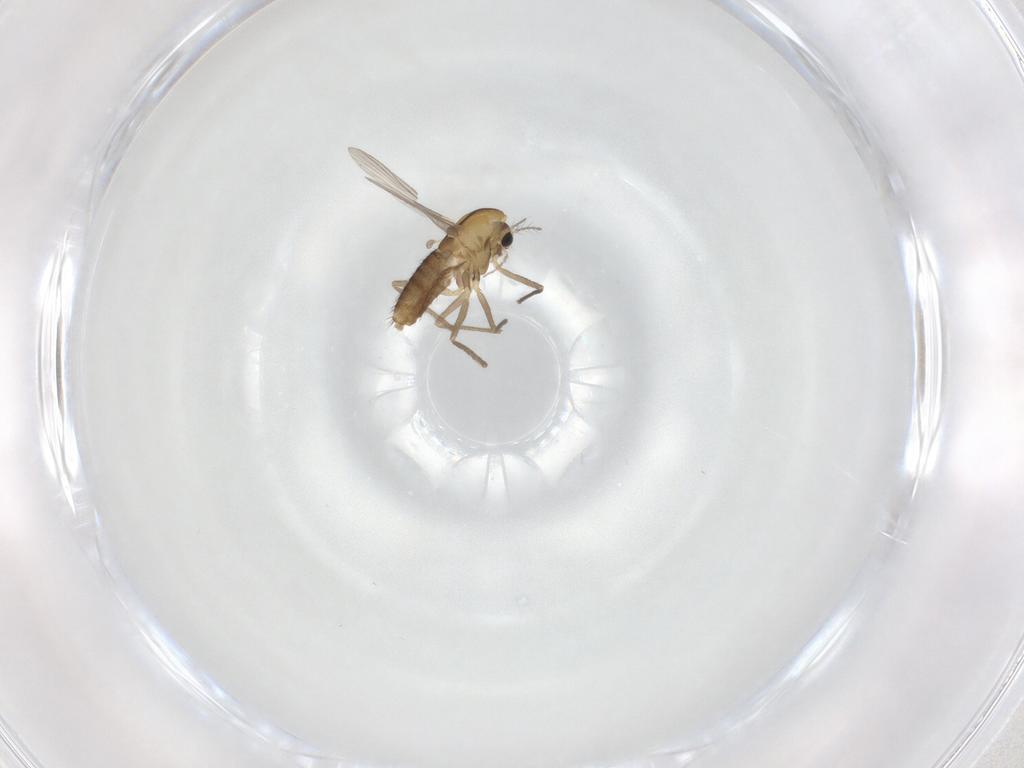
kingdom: Animalia
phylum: Arthropoda
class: Insecta
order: Diptera
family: Chironomidae
